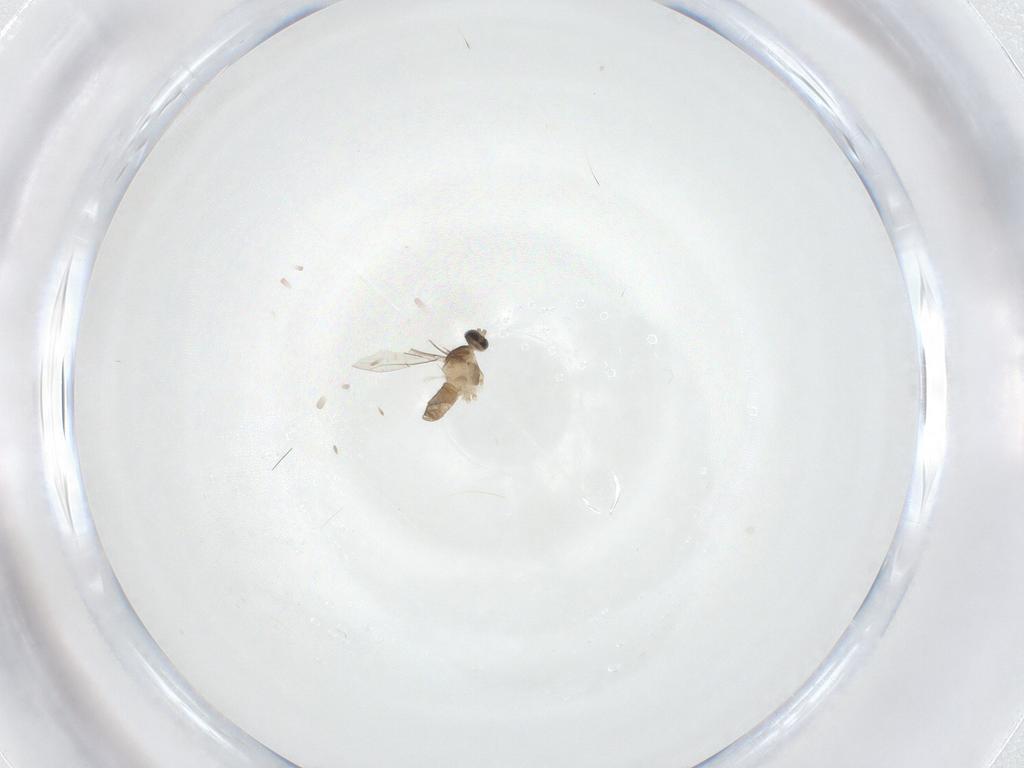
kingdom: Animalia
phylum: Arthropoda
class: Insecta
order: Diptera
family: Cecidomyiidae
